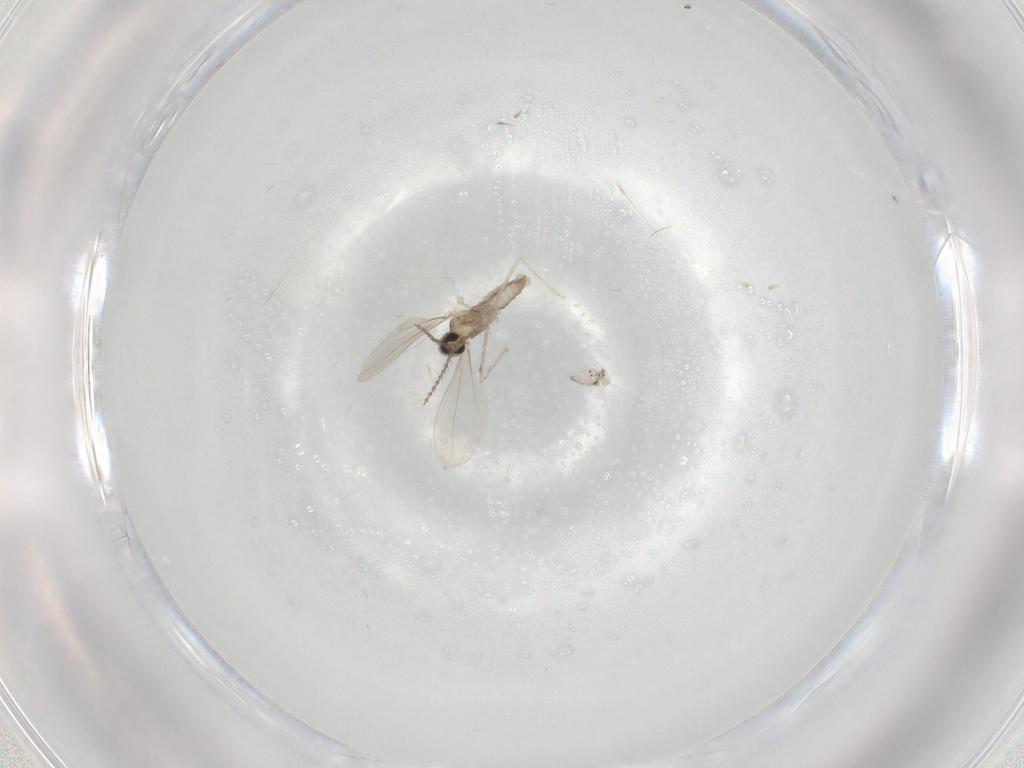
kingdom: Animalia
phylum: Arthropoda
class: Insecta
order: Diptera
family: Cecidomyiidae
